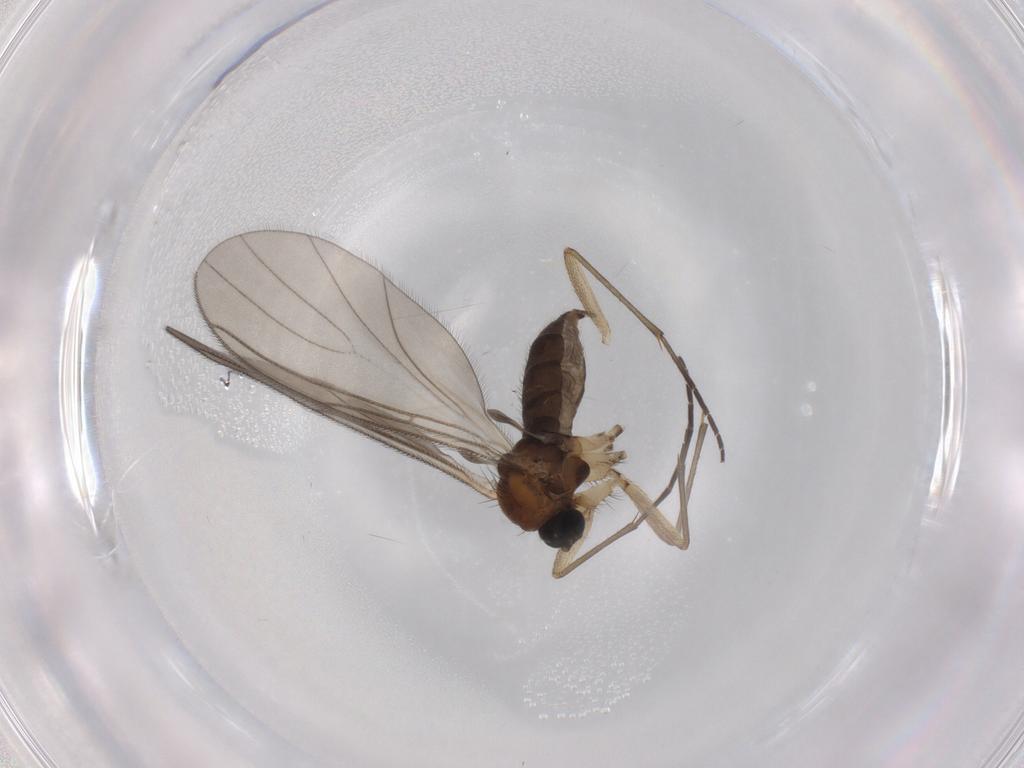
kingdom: Animalia
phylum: Arthropoda
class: Insecta
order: Diptera
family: Sciaridae
